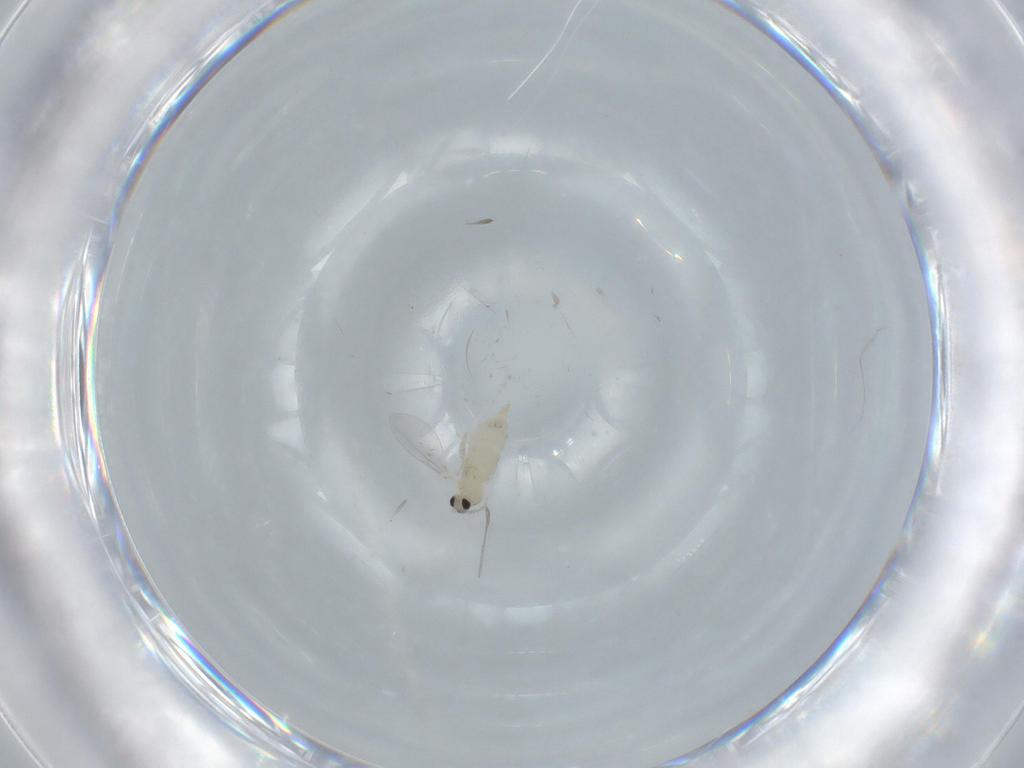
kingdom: Animalia
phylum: Arthropoda
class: Insecta
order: Diptera
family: Cecidomyiidae
